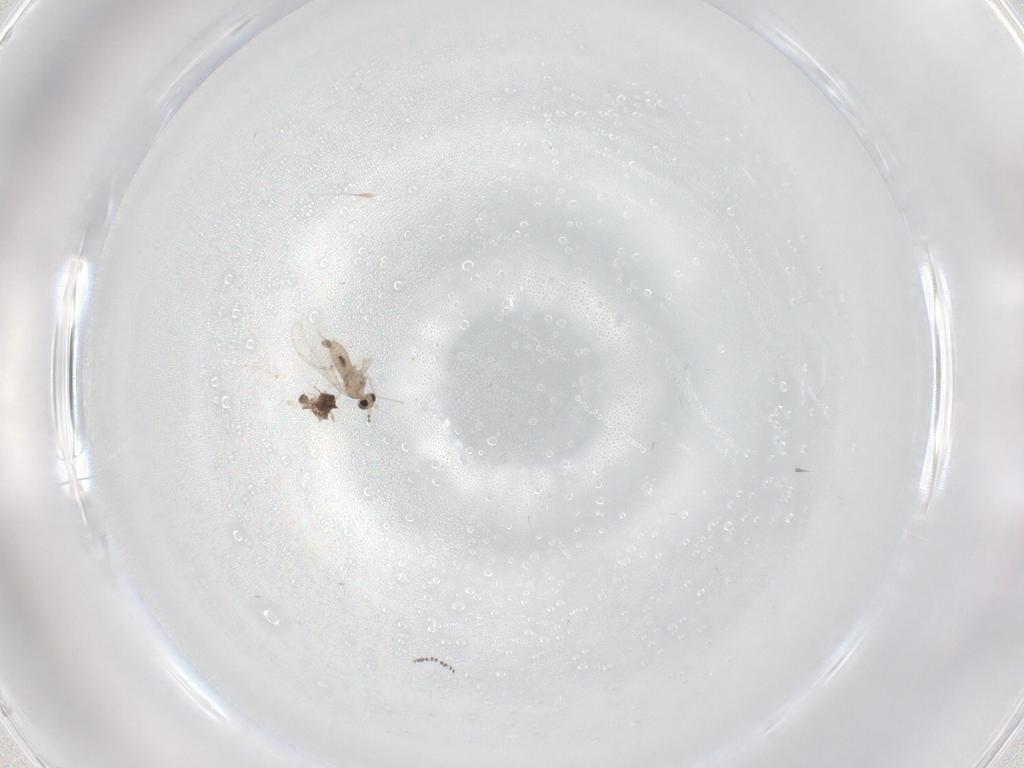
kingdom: Animalia
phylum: Arthropoda
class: Insecta
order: Diptera
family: Cecidomyiidae
